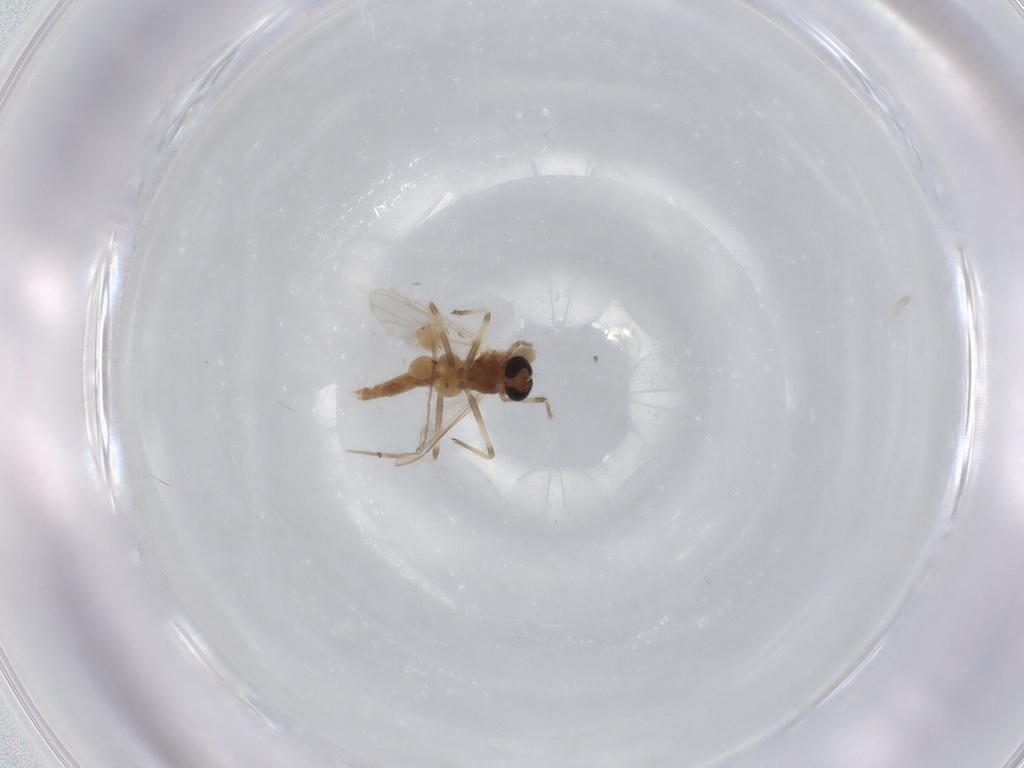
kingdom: Animalia
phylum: Arthropoda
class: Insecta
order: Diptera
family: Chironomidae
